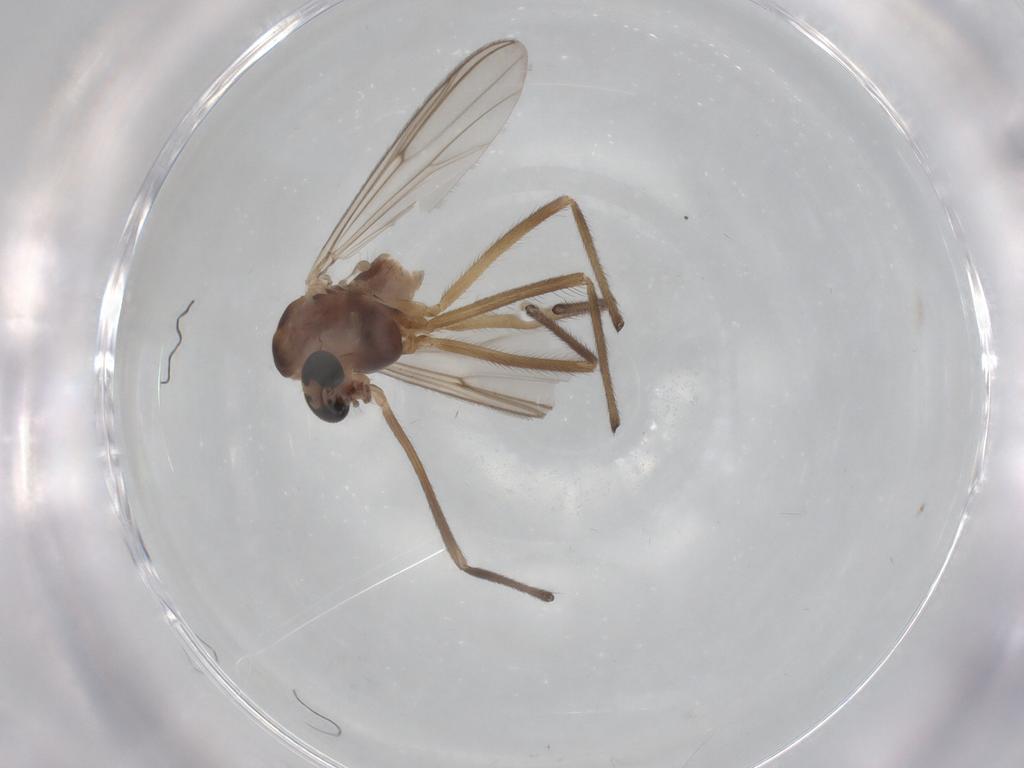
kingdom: Animalia
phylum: Arthropoda
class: Insecta
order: Diptera
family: Chironomidae
